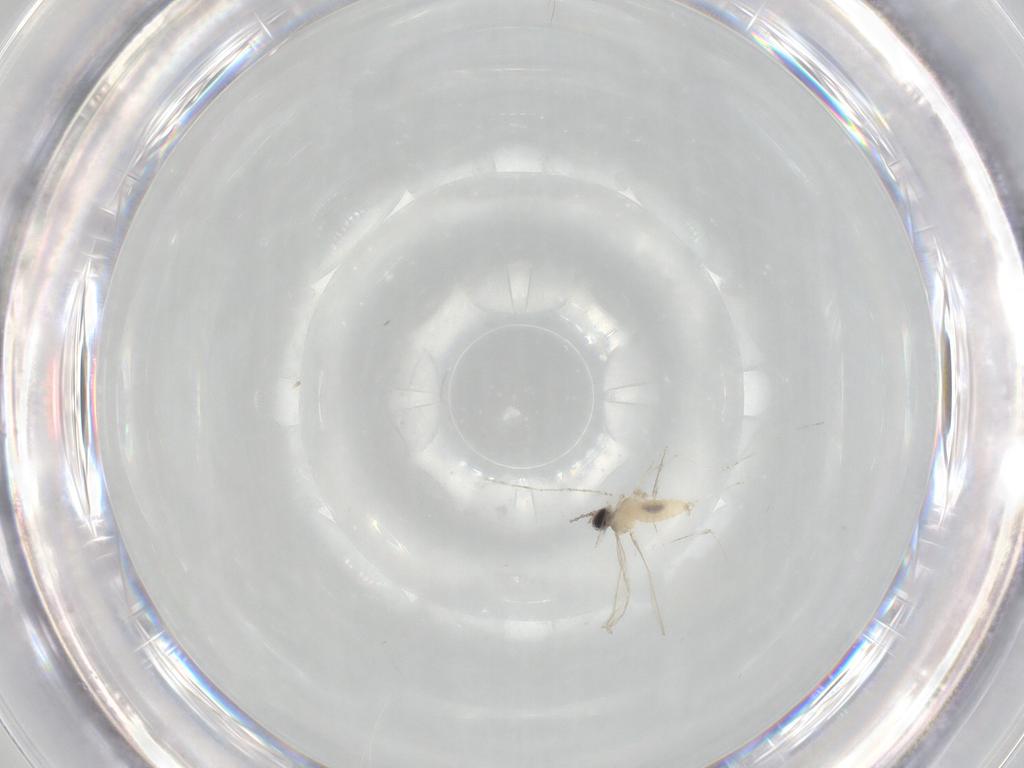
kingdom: Animalia
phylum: Arthropoda
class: Insecta
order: Diptera
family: Cecidomyiidae
